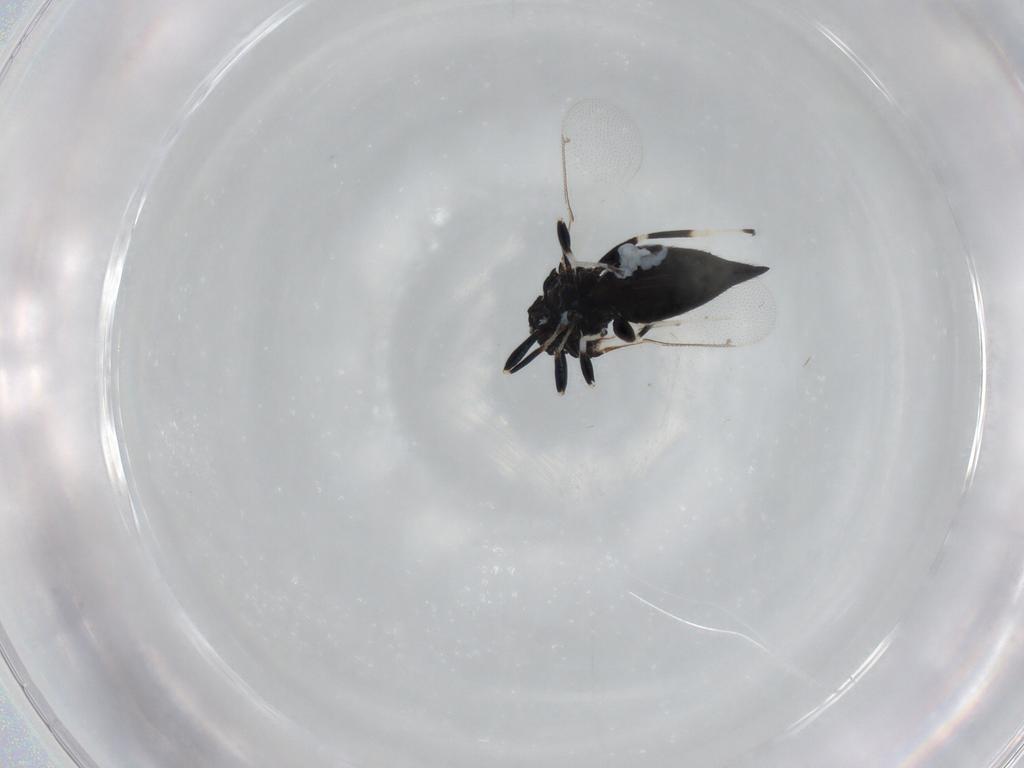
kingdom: Animalia
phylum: Arthropoda
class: Insecta
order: Hymenoptera
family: Eulophidae
